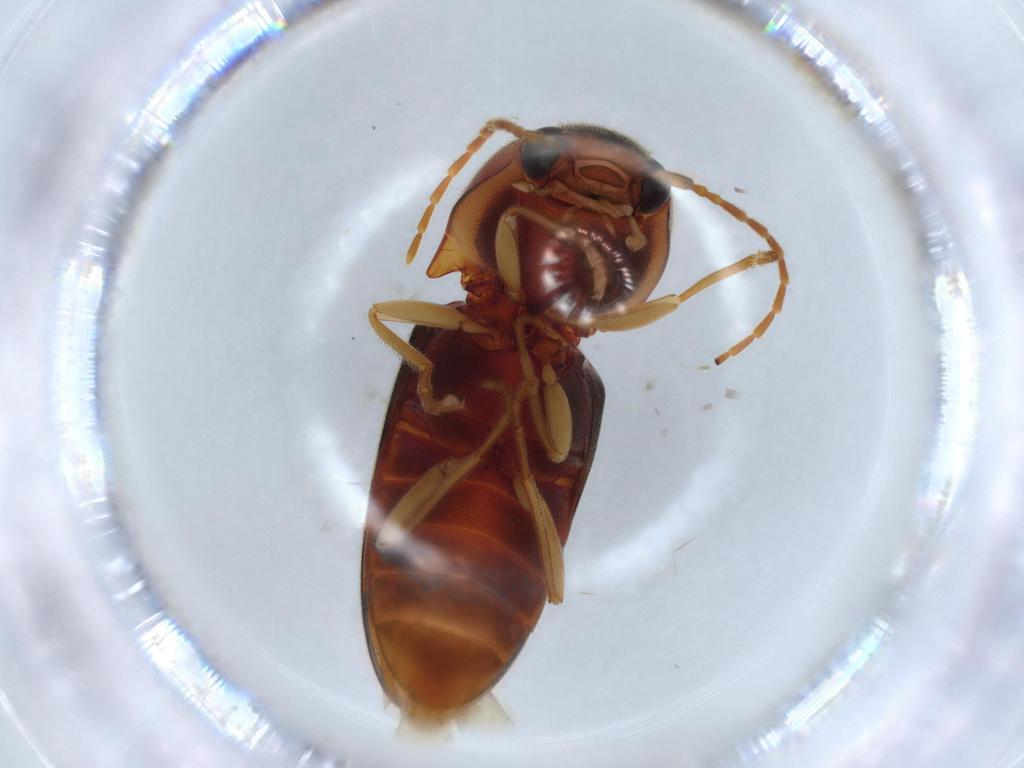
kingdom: Animalia
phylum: Arthropoda
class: Insecta
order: Coleoptera
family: Elateridae
